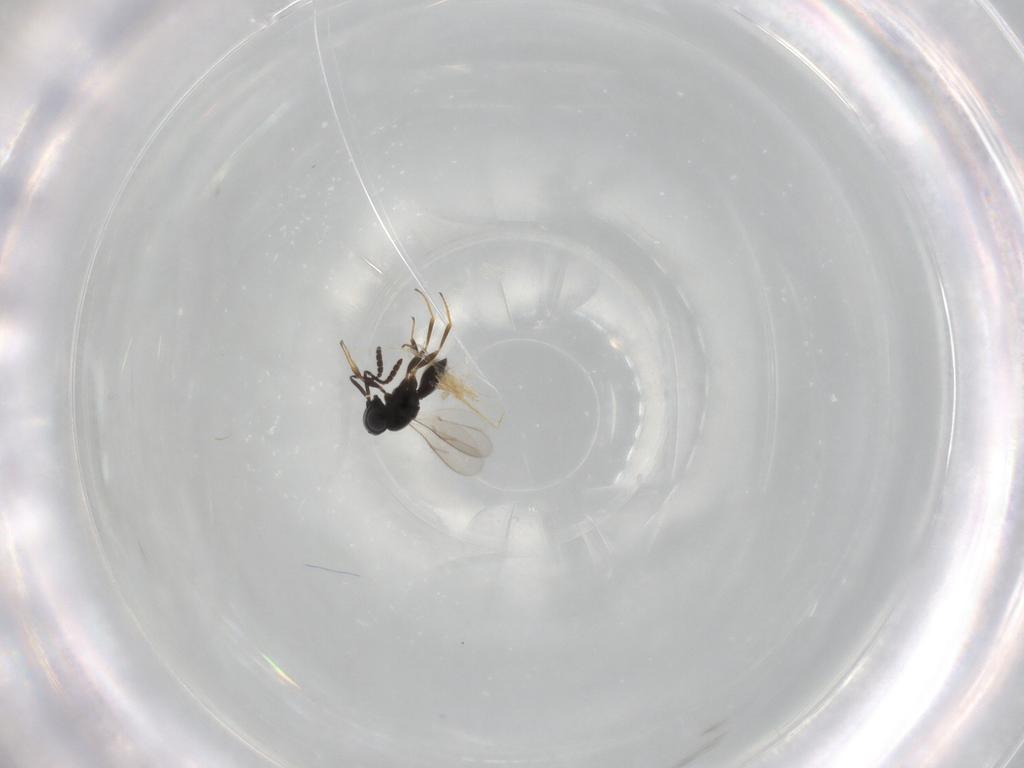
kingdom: Animalia
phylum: Arthropoda
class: Insecta
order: Hymenoptera
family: Scelionidae
